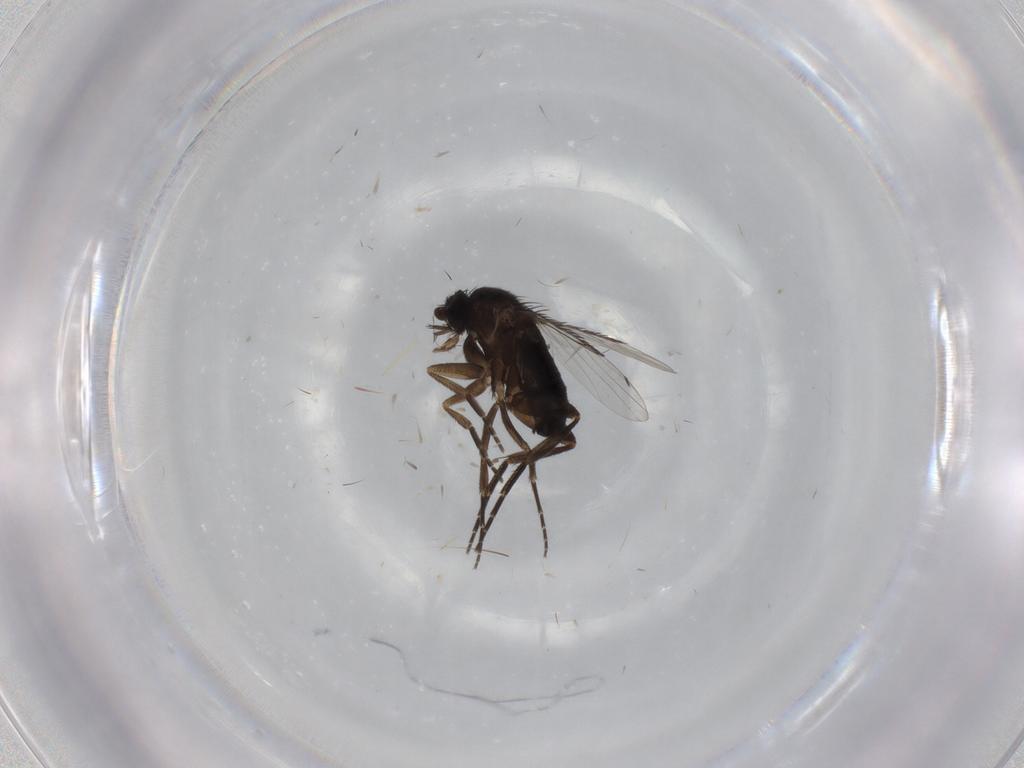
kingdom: Animalia
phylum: Arthropoda
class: Insecta
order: Diptera
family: Phoridae
